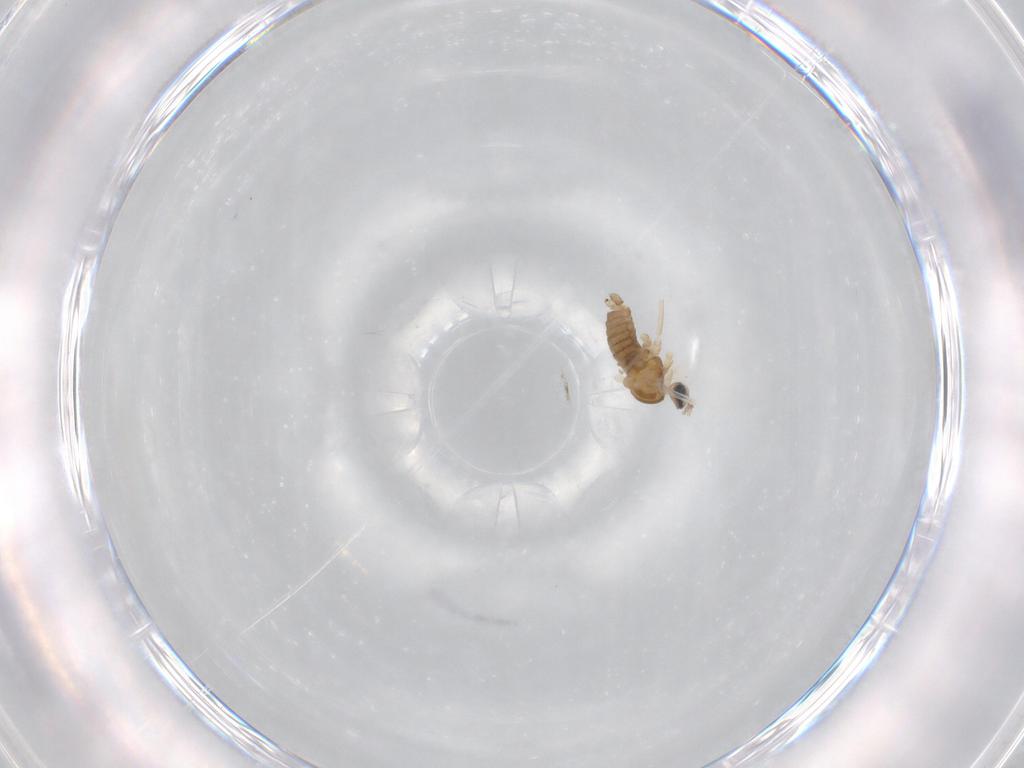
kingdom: Animalia
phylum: Arthropoda
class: Insecta
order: Diptera
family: Cecidomyiidae
